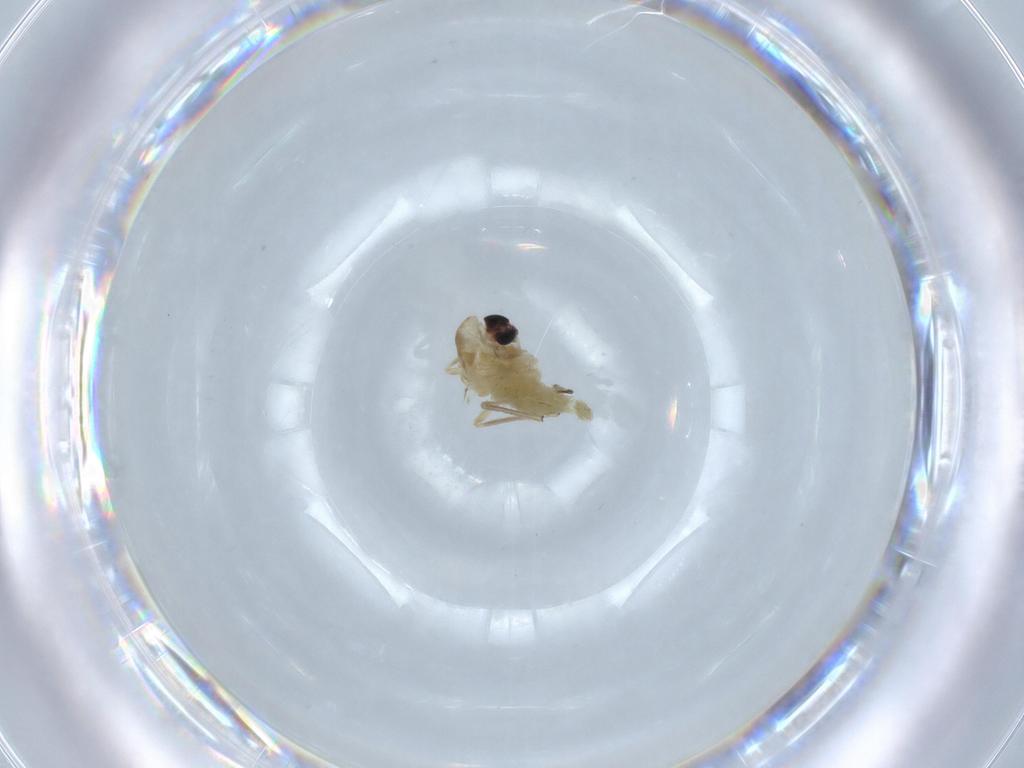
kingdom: Animalia
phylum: Arthropoda
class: Insecta
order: Diptera
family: Chironomidae
